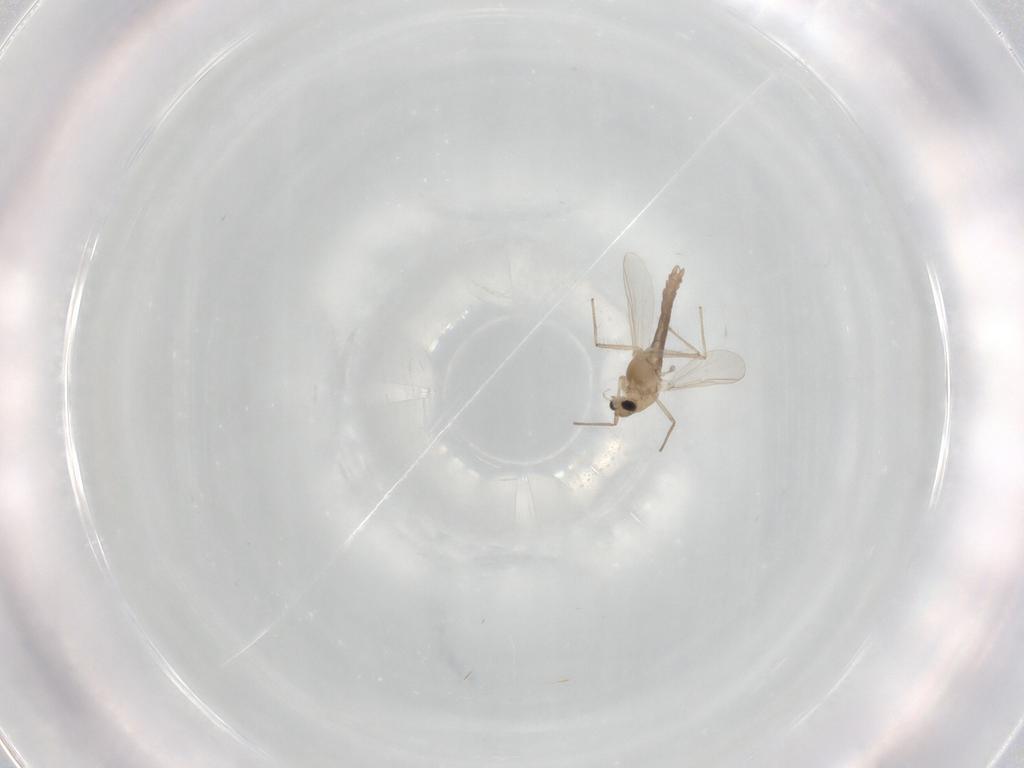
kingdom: Animalia
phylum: Arthropoda
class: Insecta
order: Diptera
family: Chironomidae
